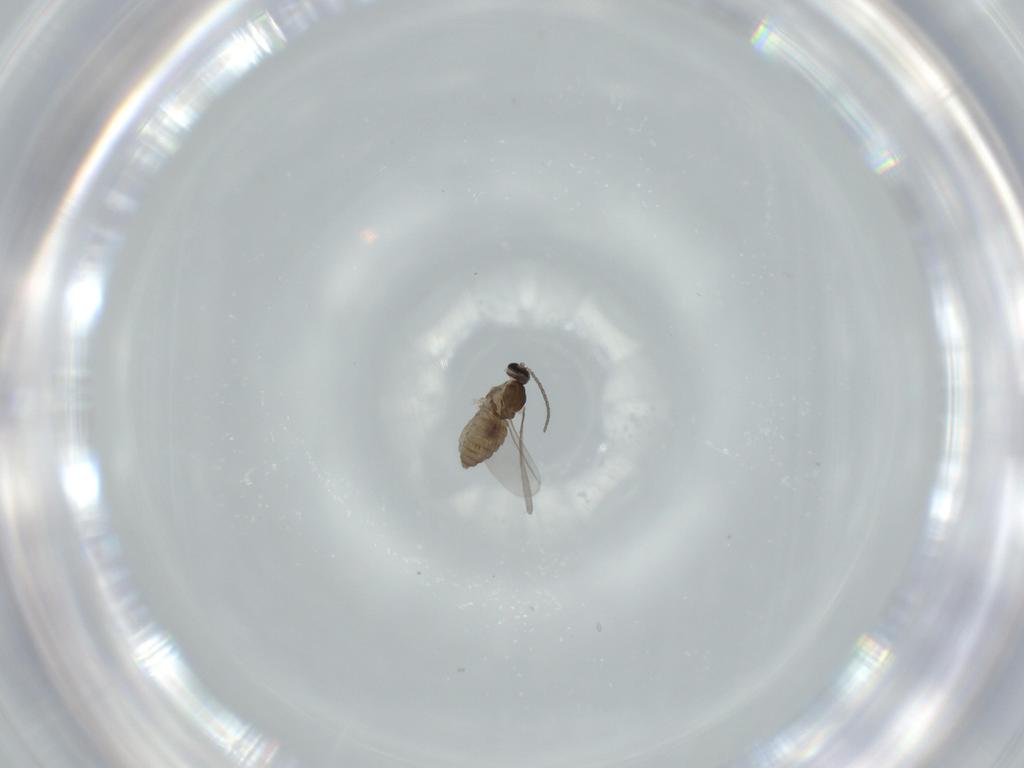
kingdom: Animalia
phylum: Arthropoda
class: Insecta
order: Diptera
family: Cecidomyiidae
